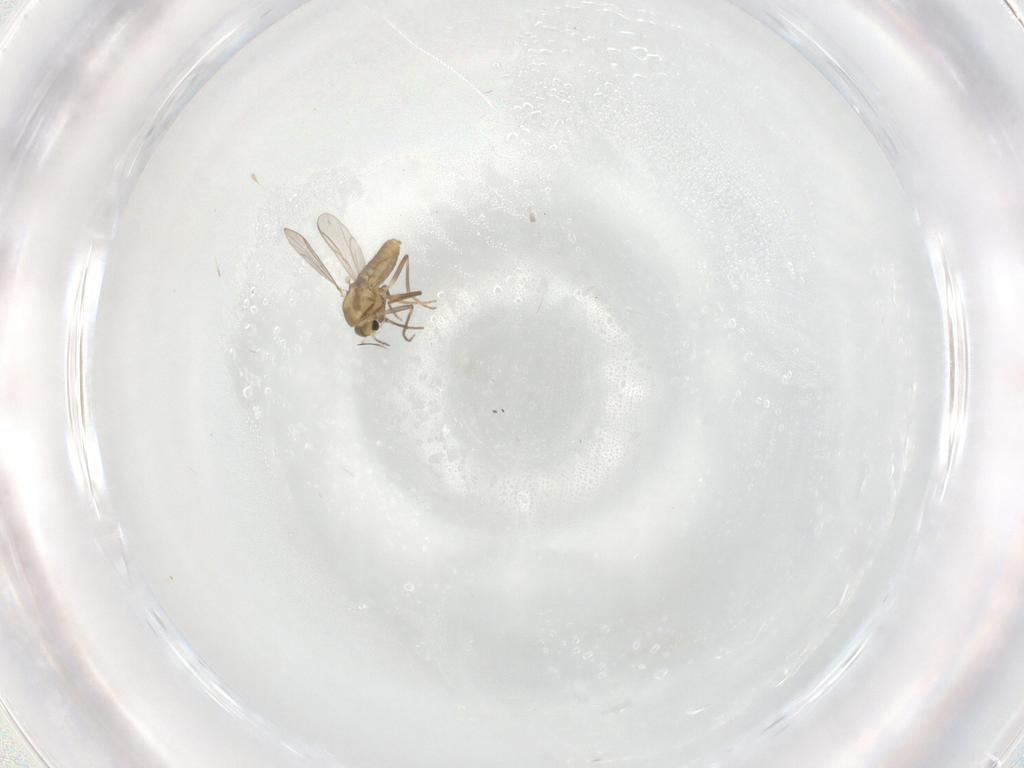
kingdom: Animalia
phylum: Arthropoda
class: Insecta
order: Diptera
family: Chironomidae
